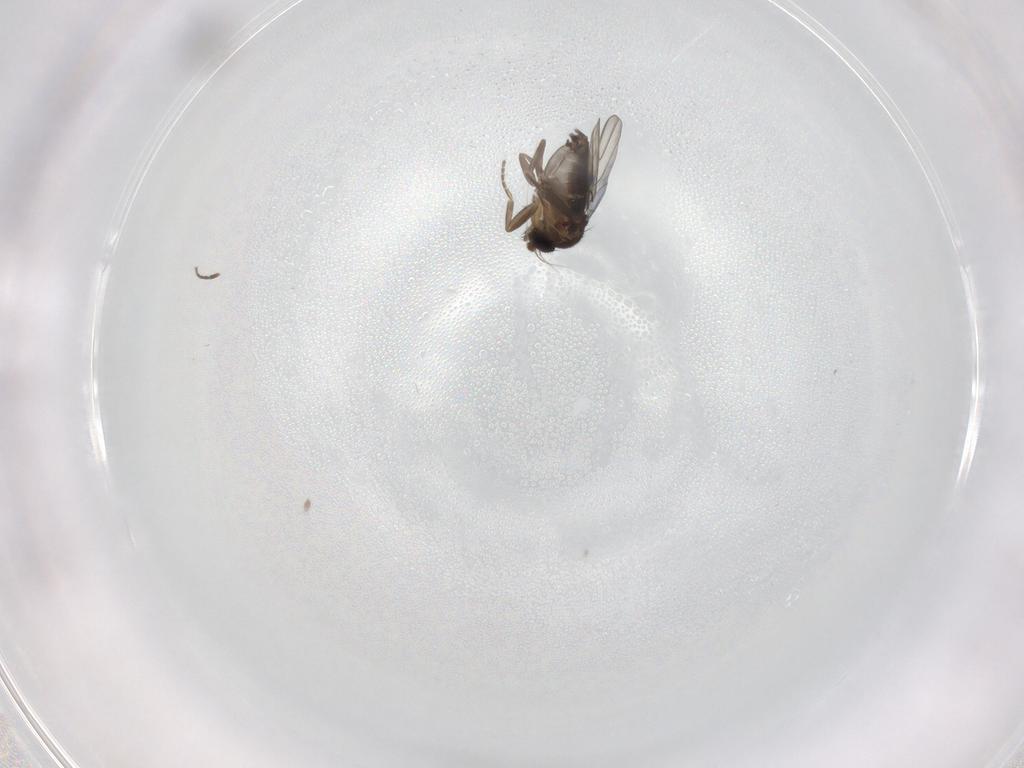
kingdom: Animalia
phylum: Arthropoda
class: Insecta
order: Diptera
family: Phoridae
